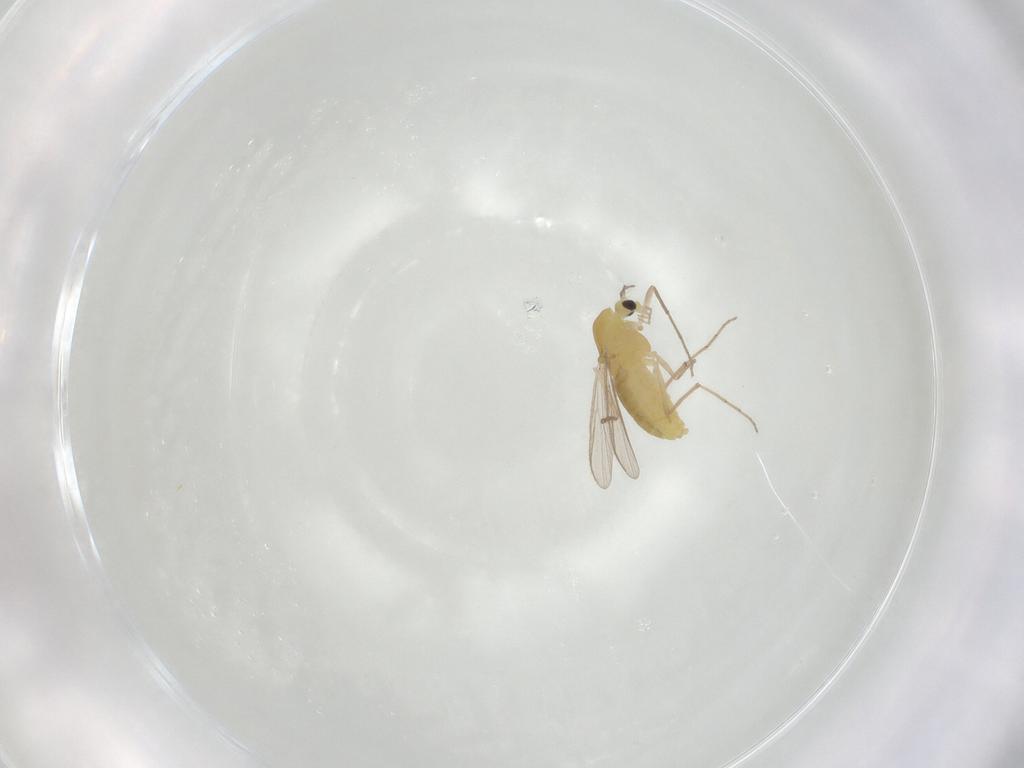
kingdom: Animalia
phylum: Arthropoda
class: Insecta
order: Diptera
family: Chironomidae
